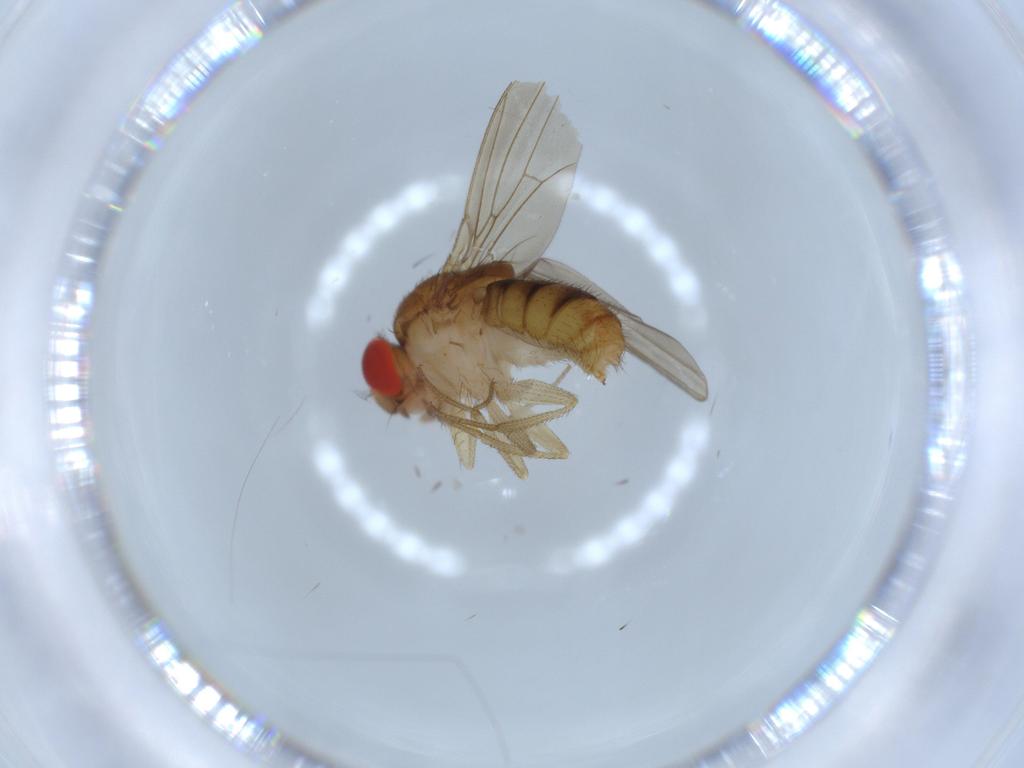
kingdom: Animalia
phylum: Arthropoda
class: Insecta
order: Diptera
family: Drosophilidae
